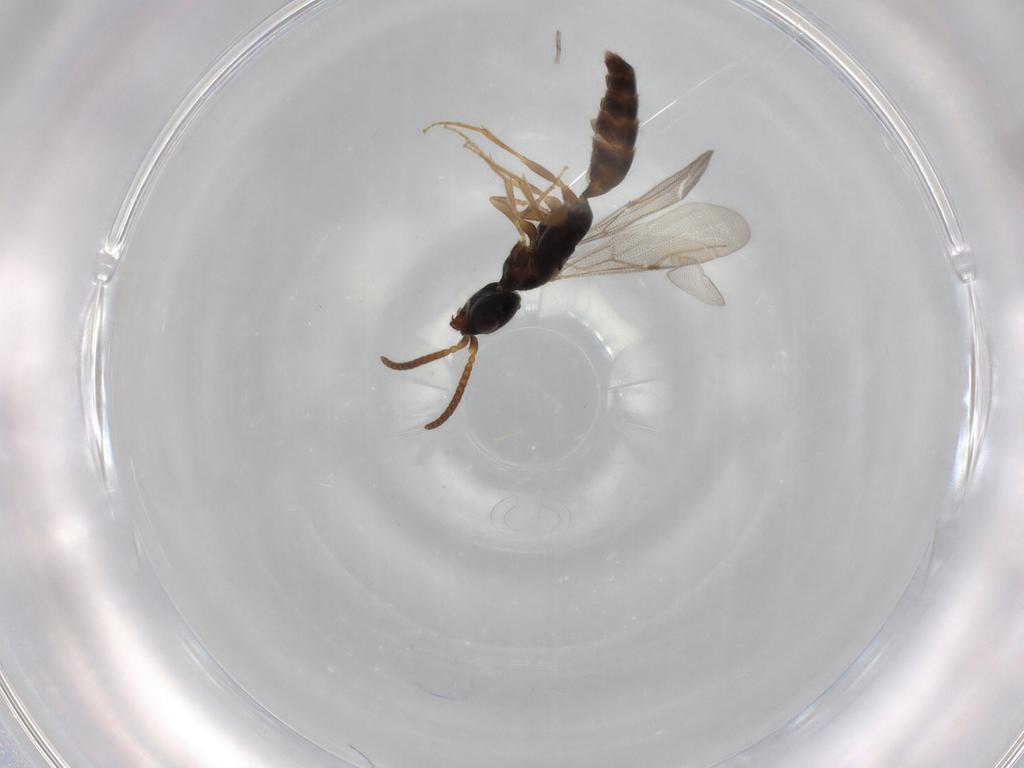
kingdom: Animalia
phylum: Arthropoda
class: Insecta
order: Hymenoptera
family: Bethylidae
